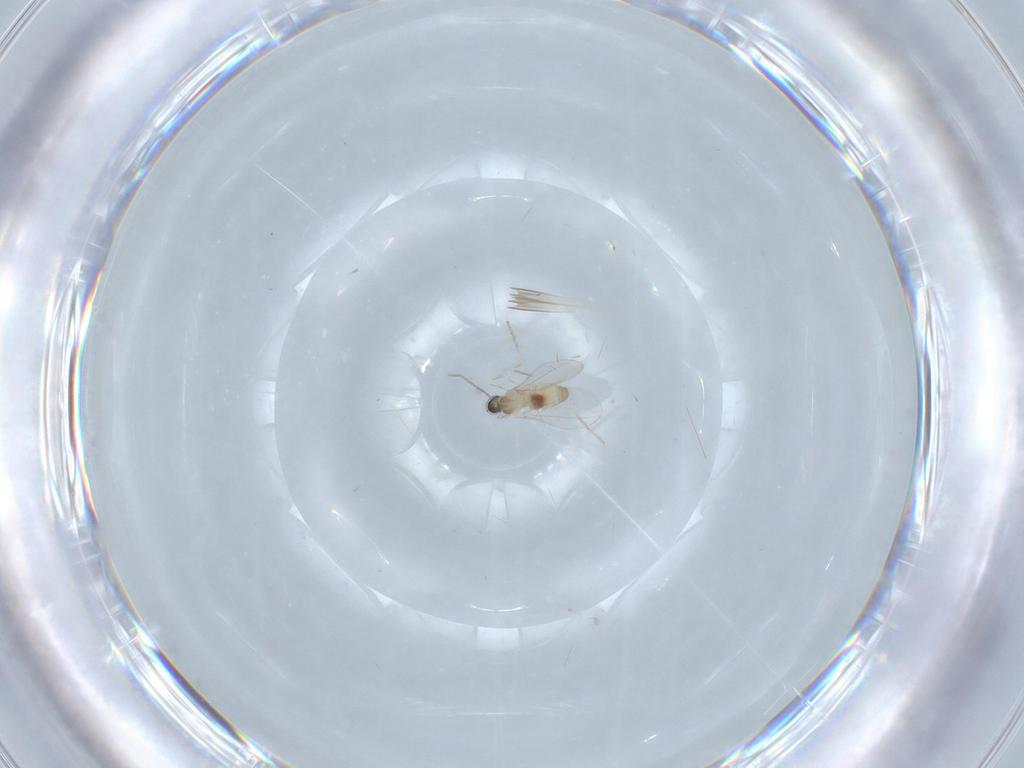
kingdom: Animalia
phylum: Arthropoda
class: Insecta
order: Diptera
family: Cecidomyiidae
